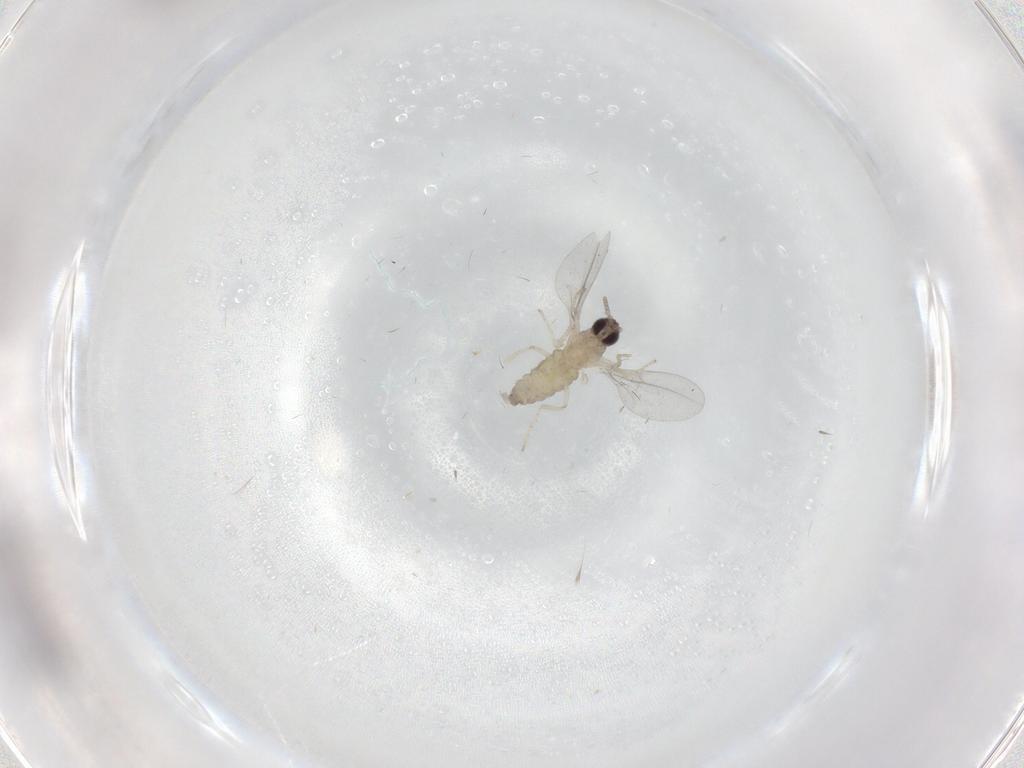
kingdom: Animalia
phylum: Arthropoda
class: Insecta
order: Diptera
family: Cecidomyiidae
